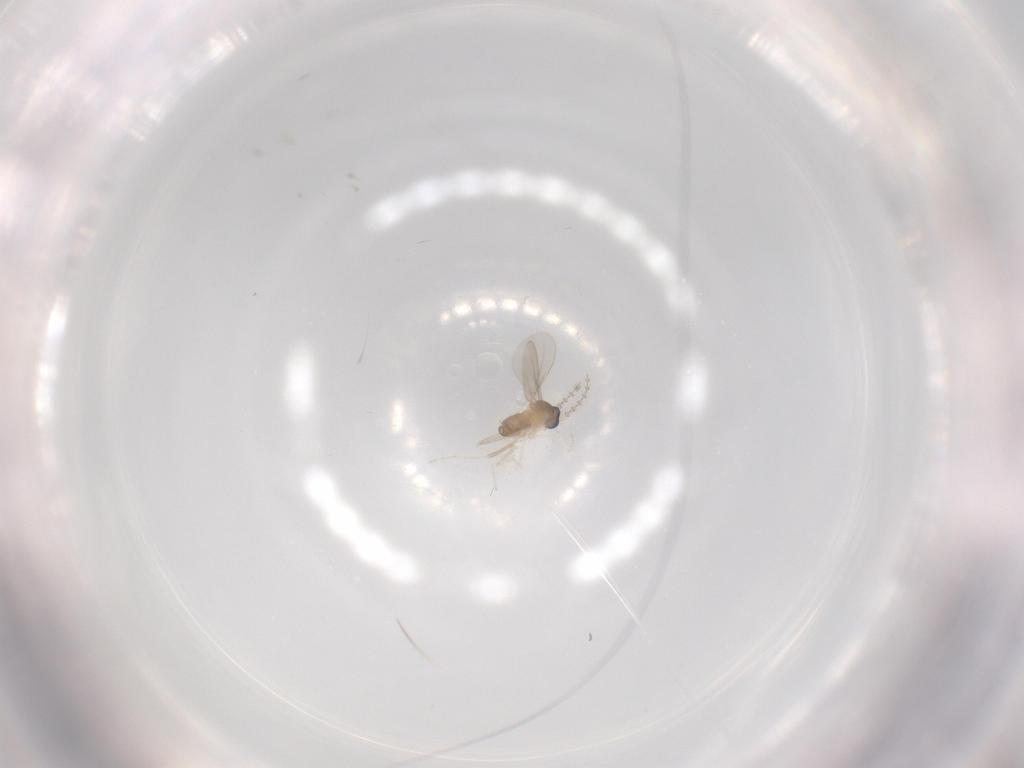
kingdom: Animalia
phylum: Arthropoda
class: Insecta
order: Diptera
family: Cecidomyiidae
